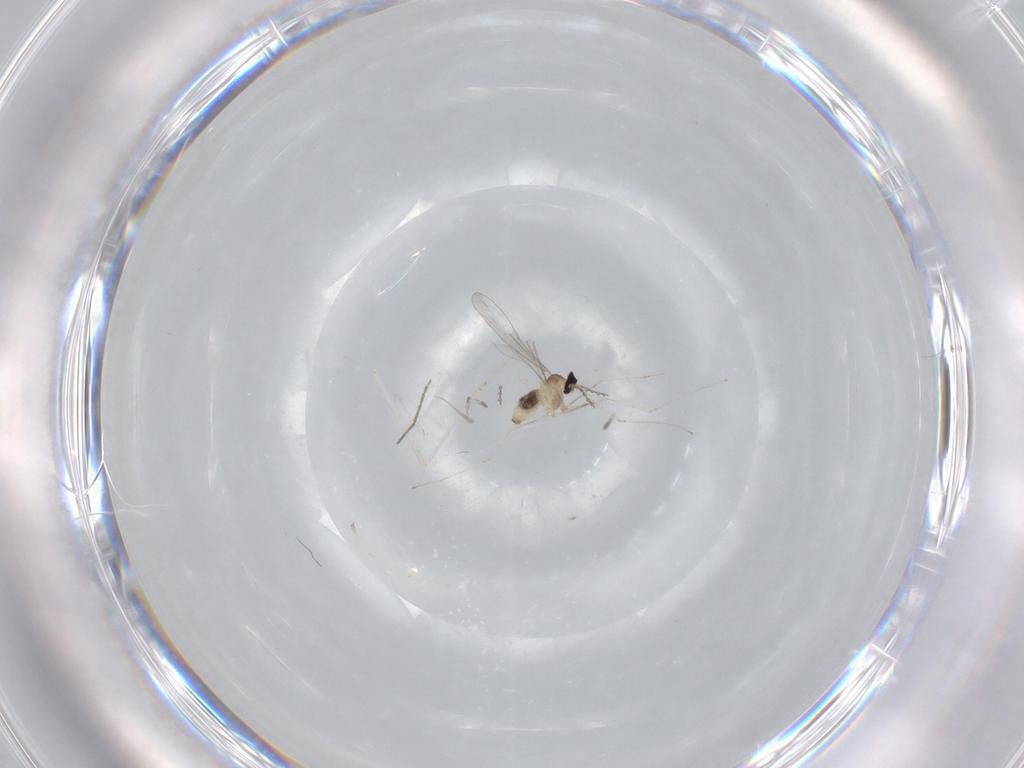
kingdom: Animalia
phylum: Arthropoda
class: Insecta
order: Diptera
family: Cecidomyiidae
